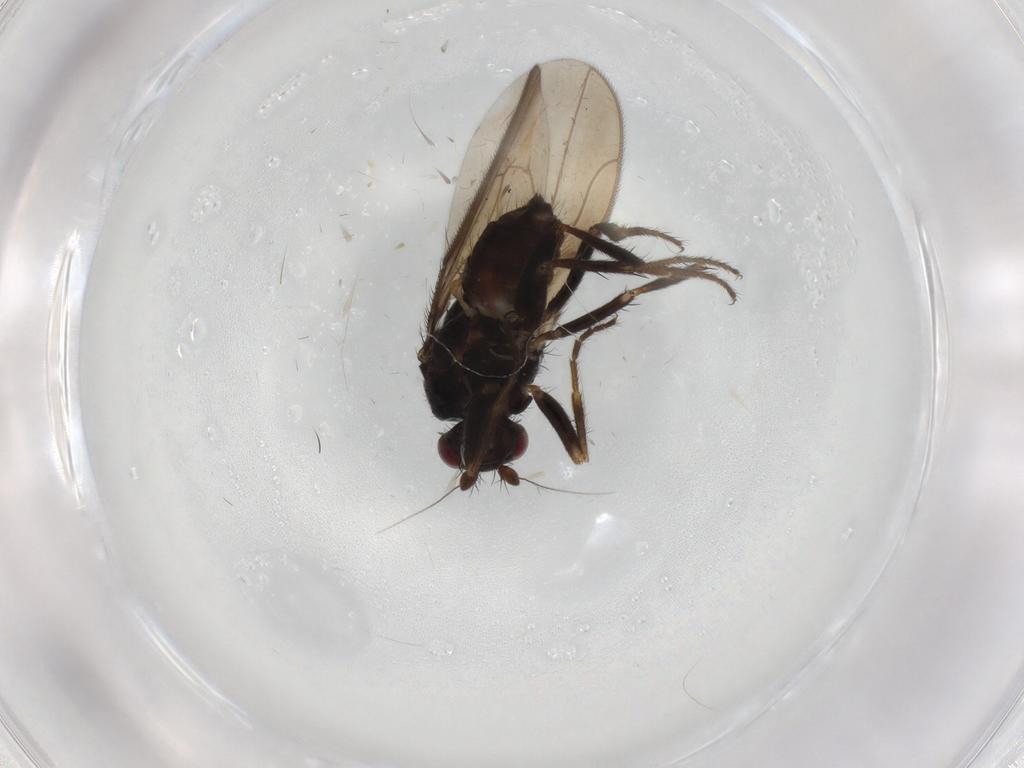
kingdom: Animalia
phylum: Arthropoda
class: Insecta
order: Diptera
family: Sphaeroceridae
